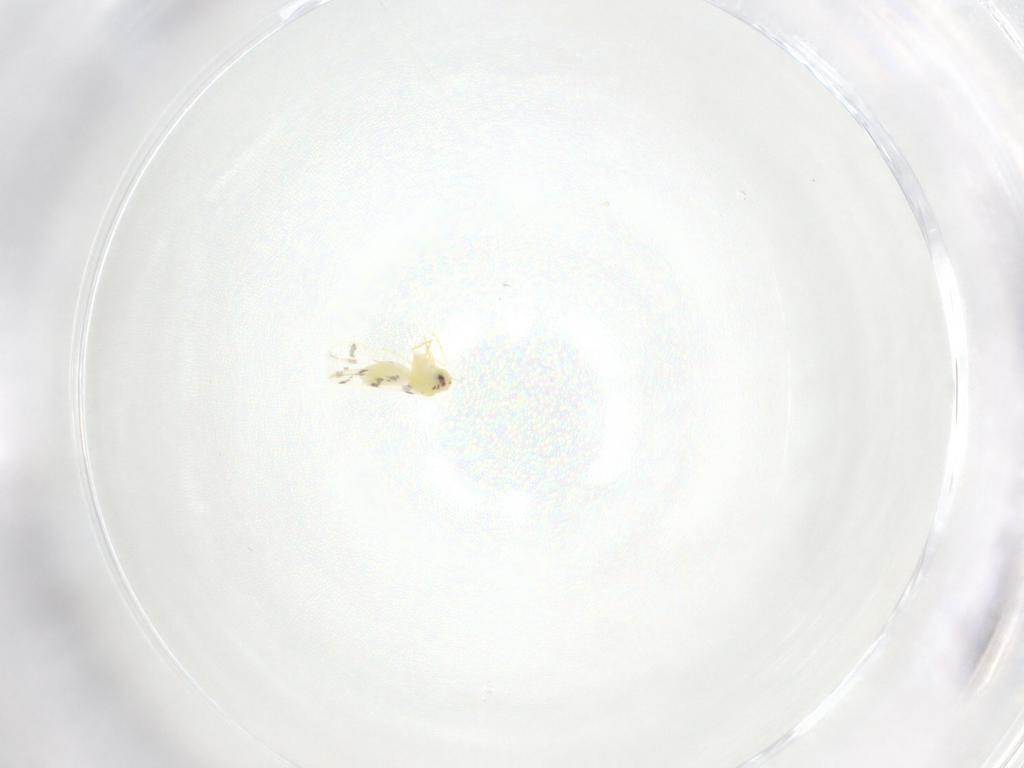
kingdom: Animalia
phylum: Arthropoda
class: Insecta
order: Hemiptera
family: Aleyrodidae
